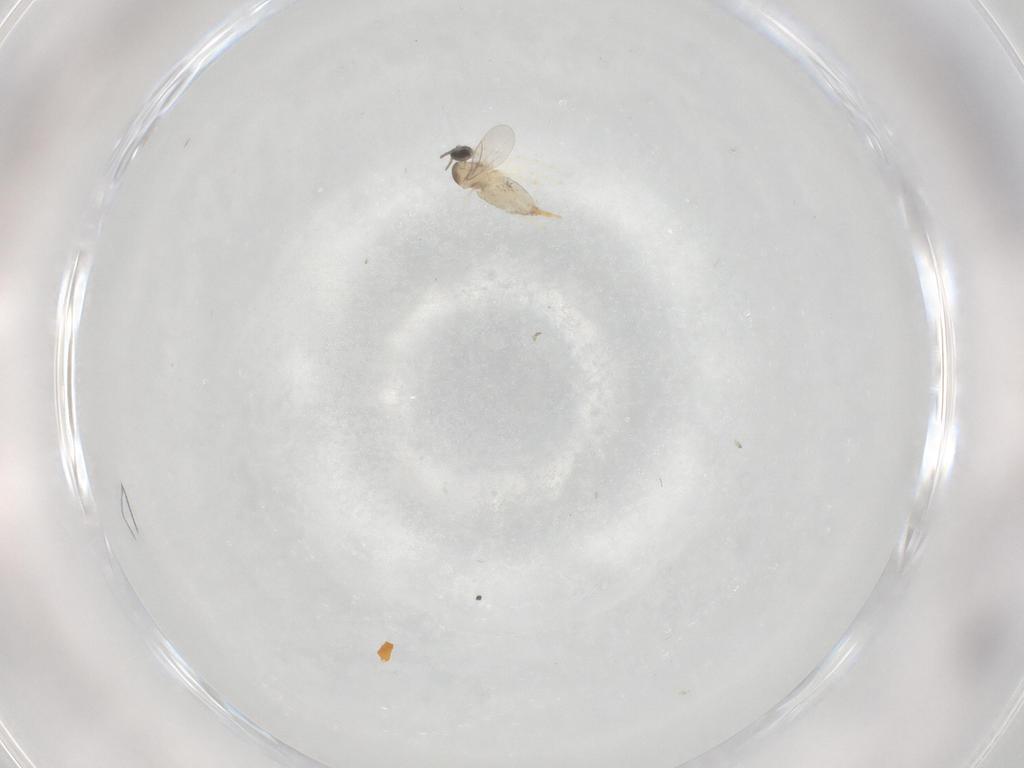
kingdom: Animalia
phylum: Arthropoda
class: Insecta
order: Diptera
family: Cecidomyiidae
